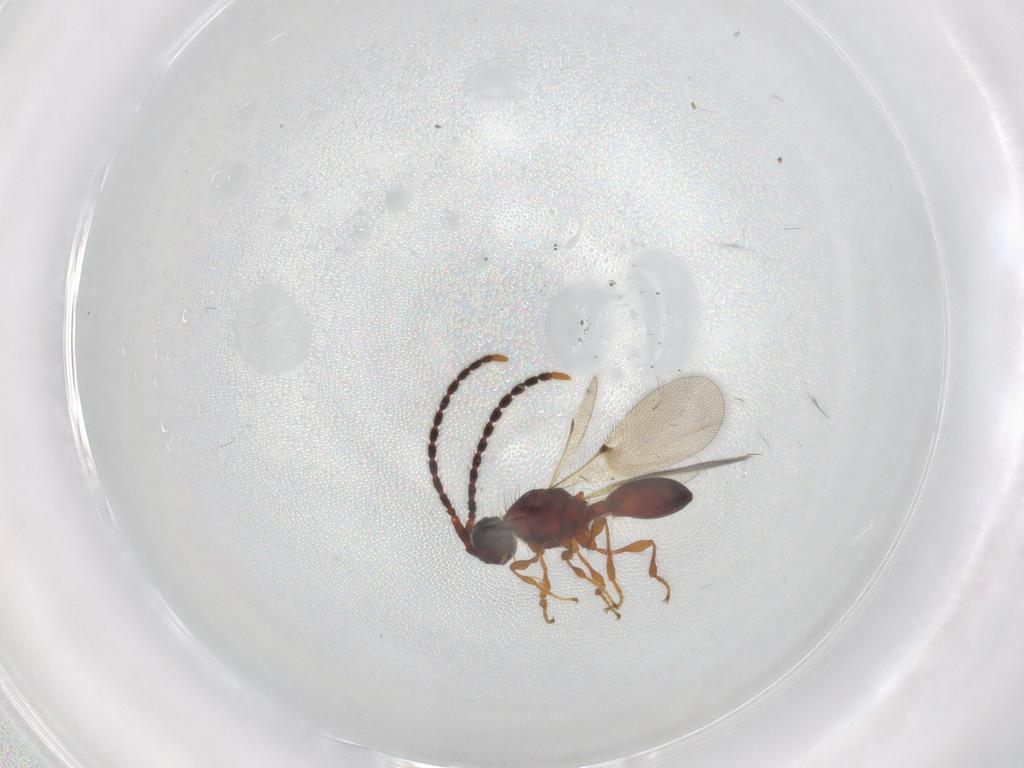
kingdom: Animalia
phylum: Arthropoda
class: Insecta
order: Hymenoptera
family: Diapriidae
